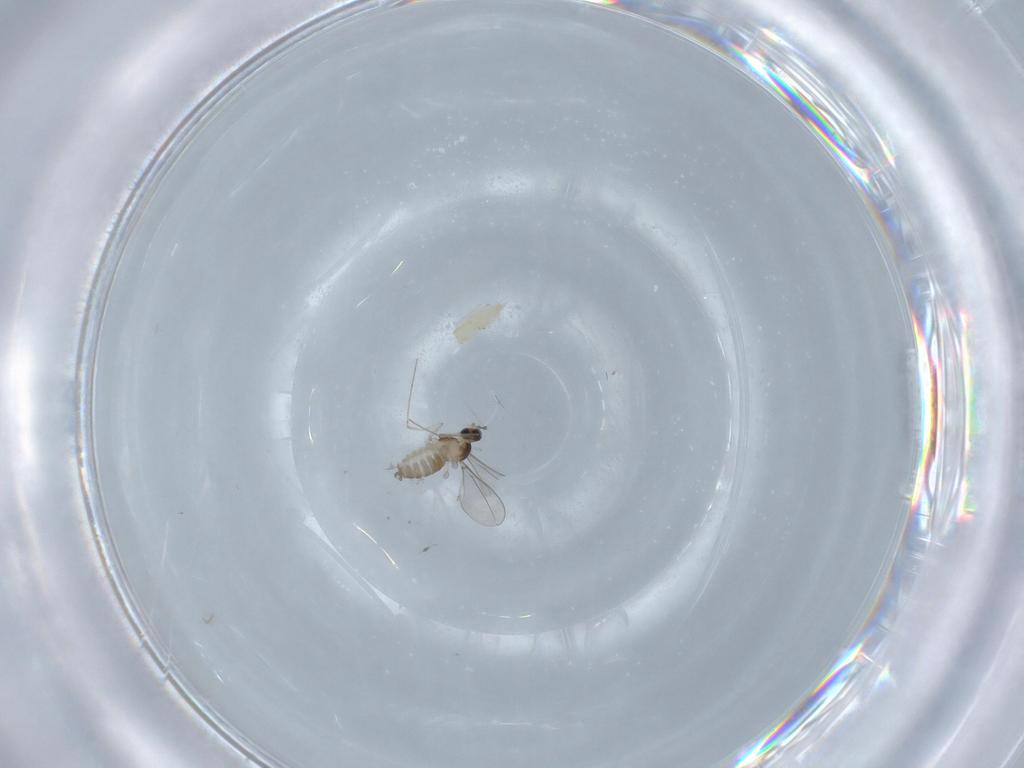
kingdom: Animalia
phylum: Arthropoda
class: Insecta
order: Diptera
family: Cecidomyiidae
